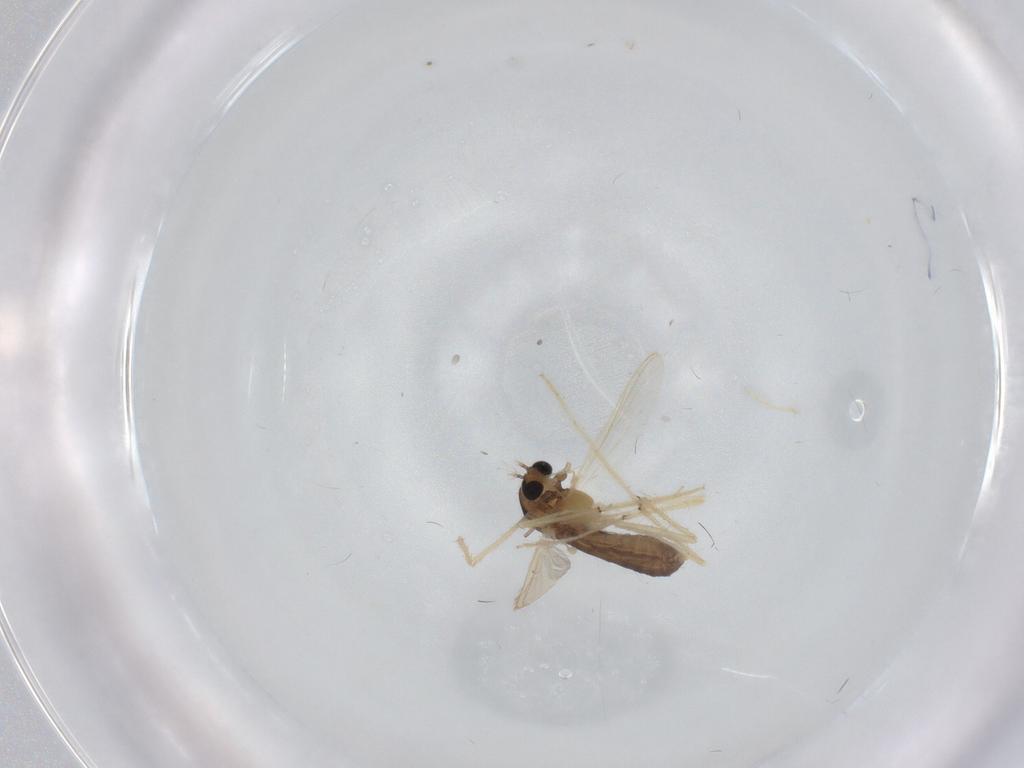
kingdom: Animalia
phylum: Arthropoda
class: Insecta
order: Diptera
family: Chironomidae
